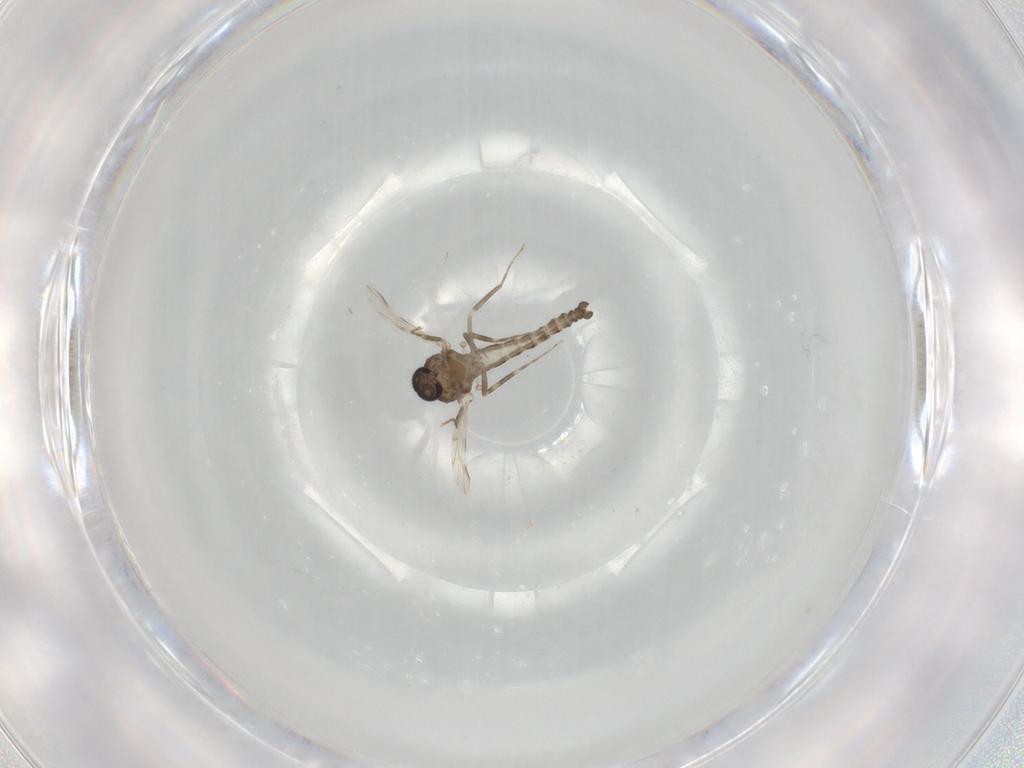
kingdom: Animalia
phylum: Arthropoda
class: Insecta
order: Diptera
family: Ceratopogonidae
